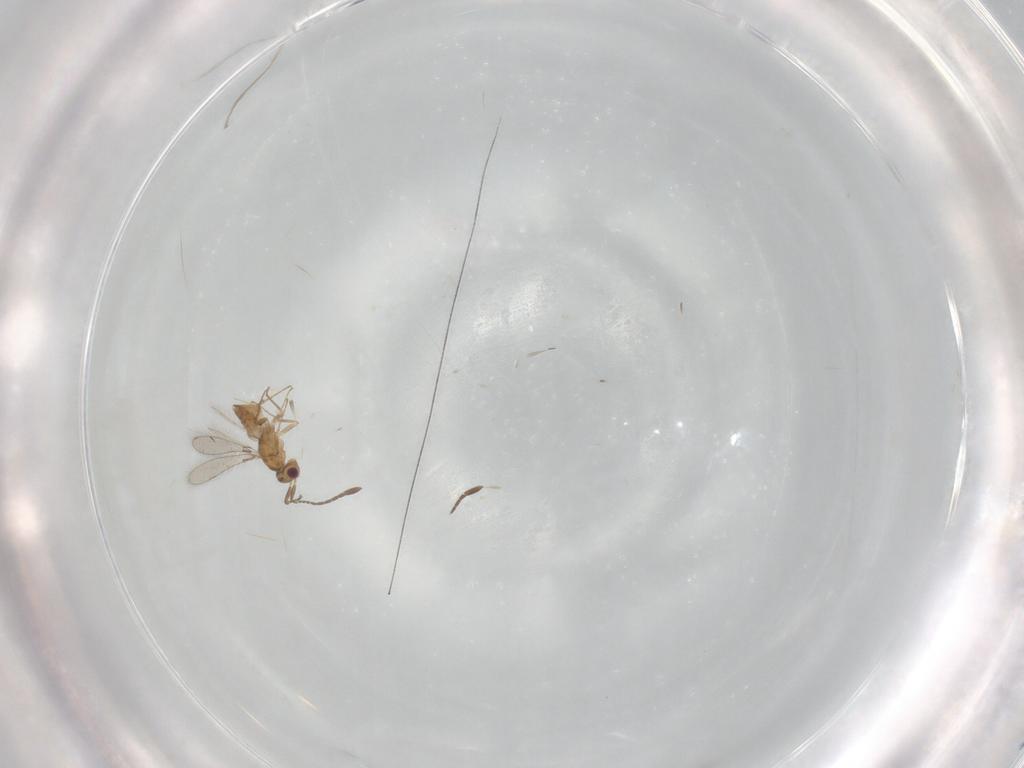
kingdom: Animalia
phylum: Arthropoda
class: Insecta
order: Hymenoptera
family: Mymaridae
